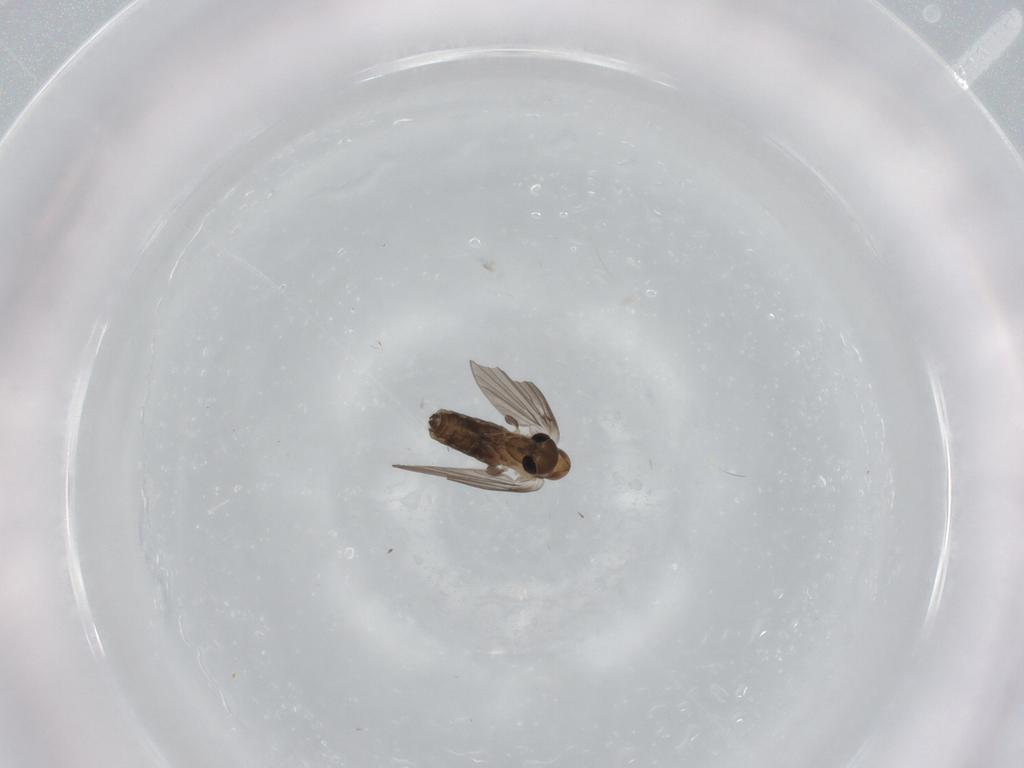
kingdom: Animalia
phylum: Arthropoda
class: Insecta
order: Diptera
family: Psychodidae
